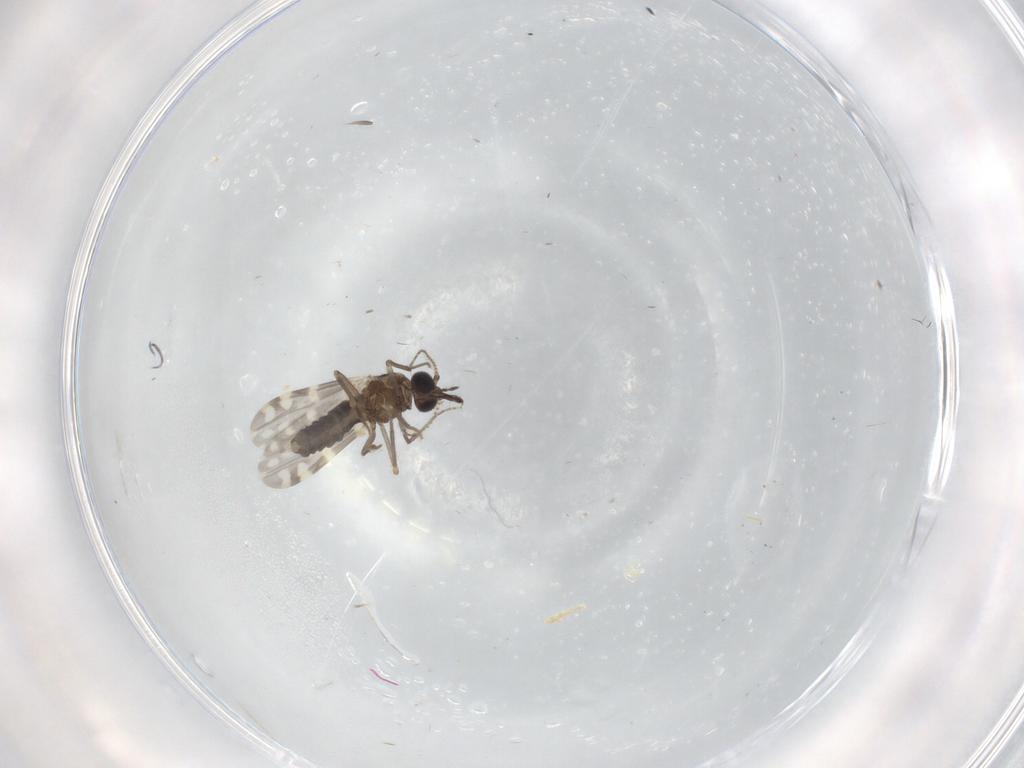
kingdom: Animalia
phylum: Arthropoda
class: Insecta
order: Diptera
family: Ceratopogonidae
